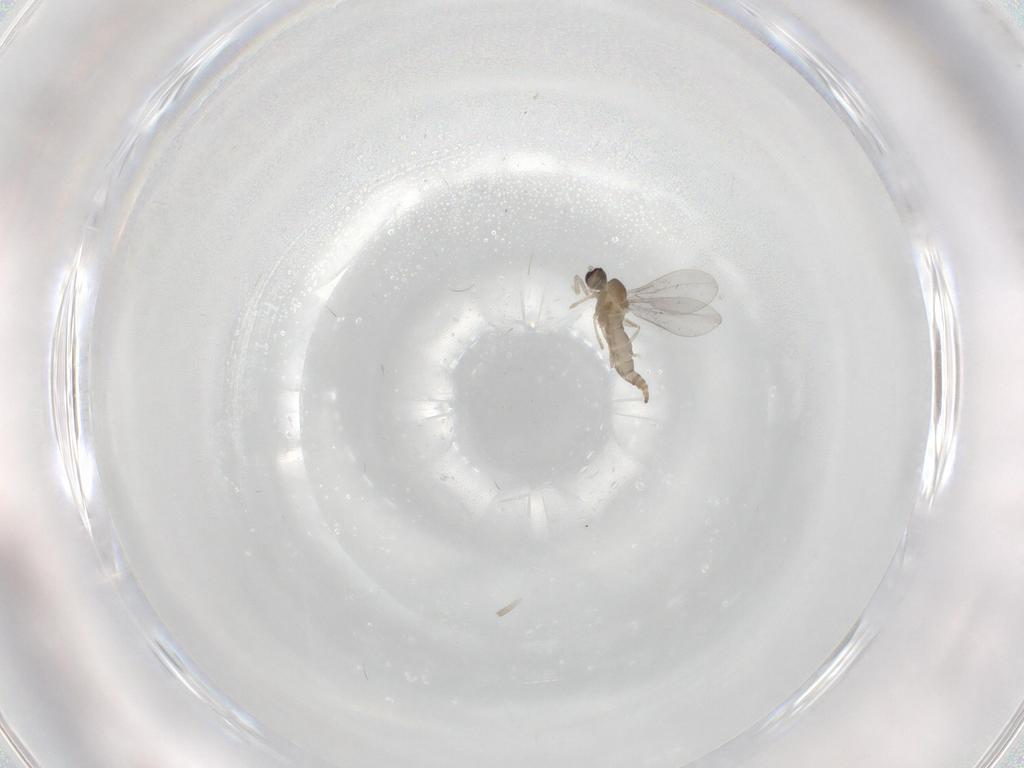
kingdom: Animalia
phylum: Arthropoda
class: Insecta
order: Diptera
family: Cecidomyiidae
